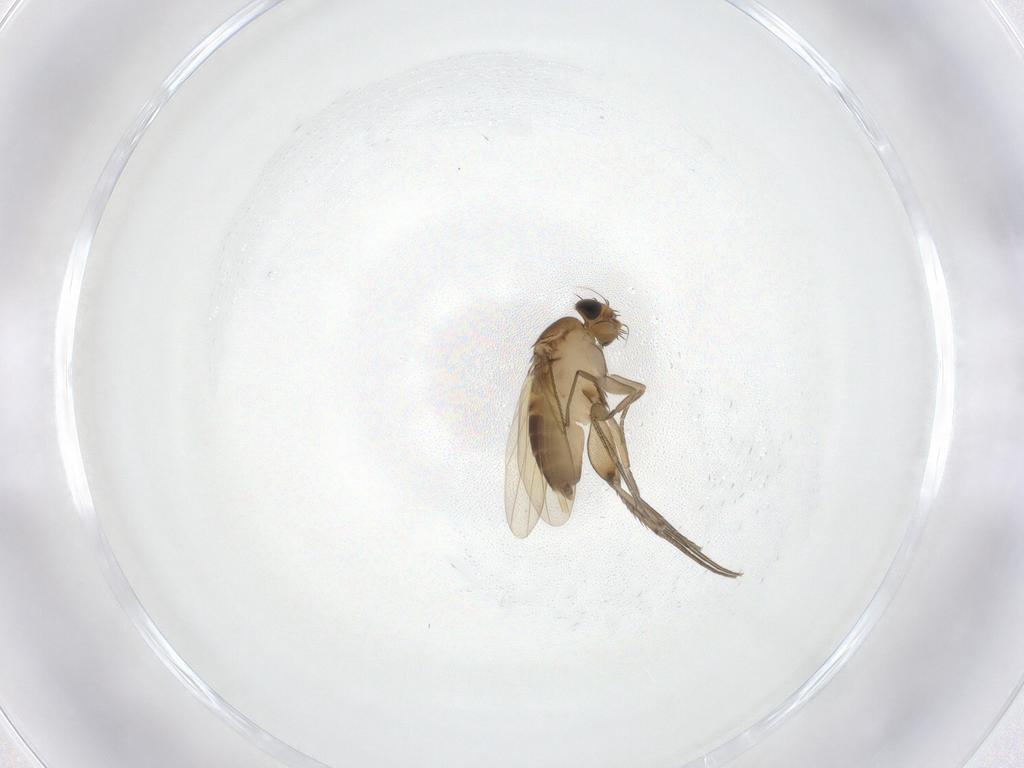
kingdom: Animalia
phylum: Arthropoda
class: Insecta
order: Diptera
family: Phoridae
